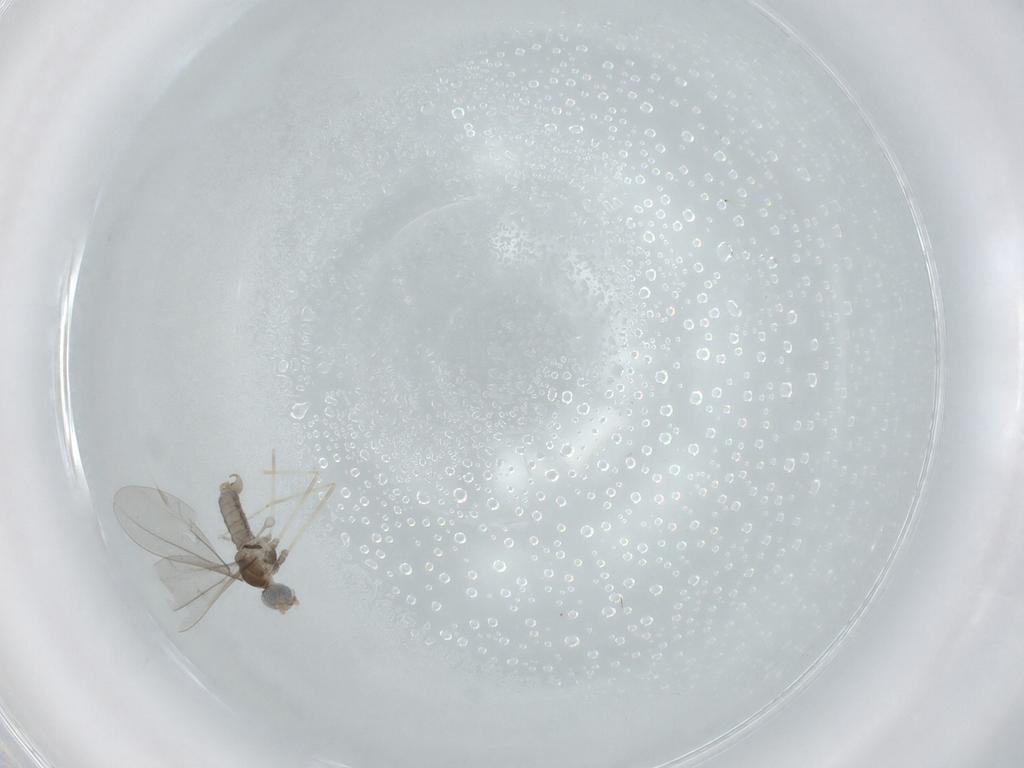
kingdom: Animalia
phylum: Arthropoda
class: Insecta
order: Diptera
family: Cecidomyiidae
